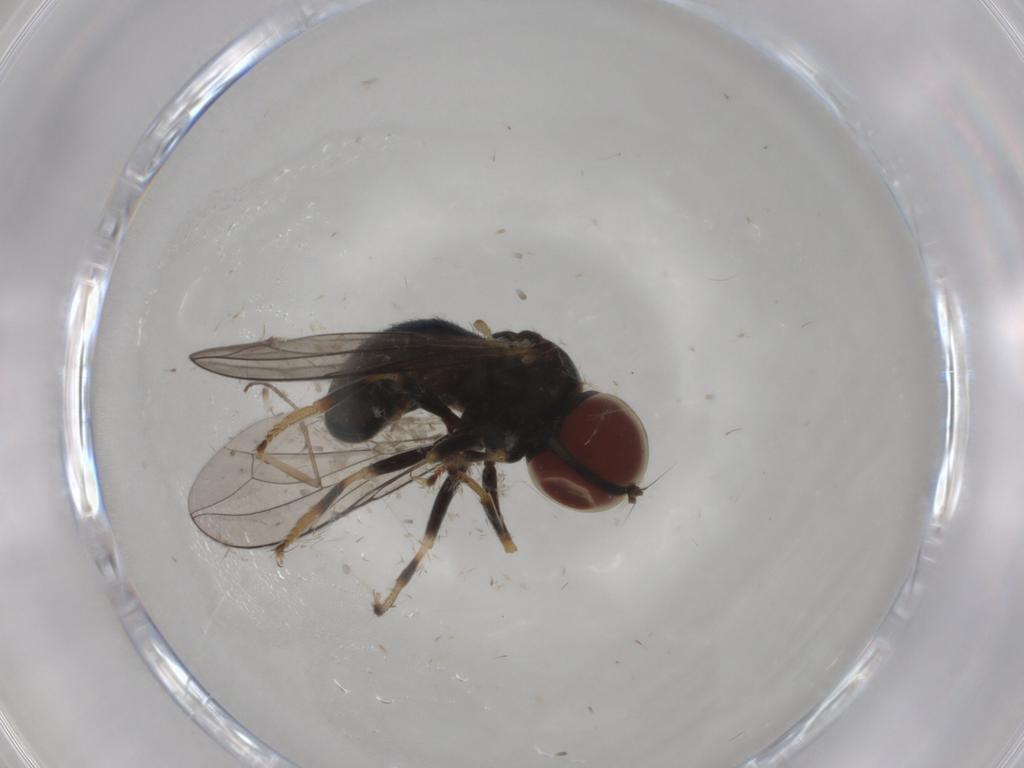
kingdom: Animalia
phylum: Arthropoda
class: Insecta
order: Diptera
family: Pipunculidae
